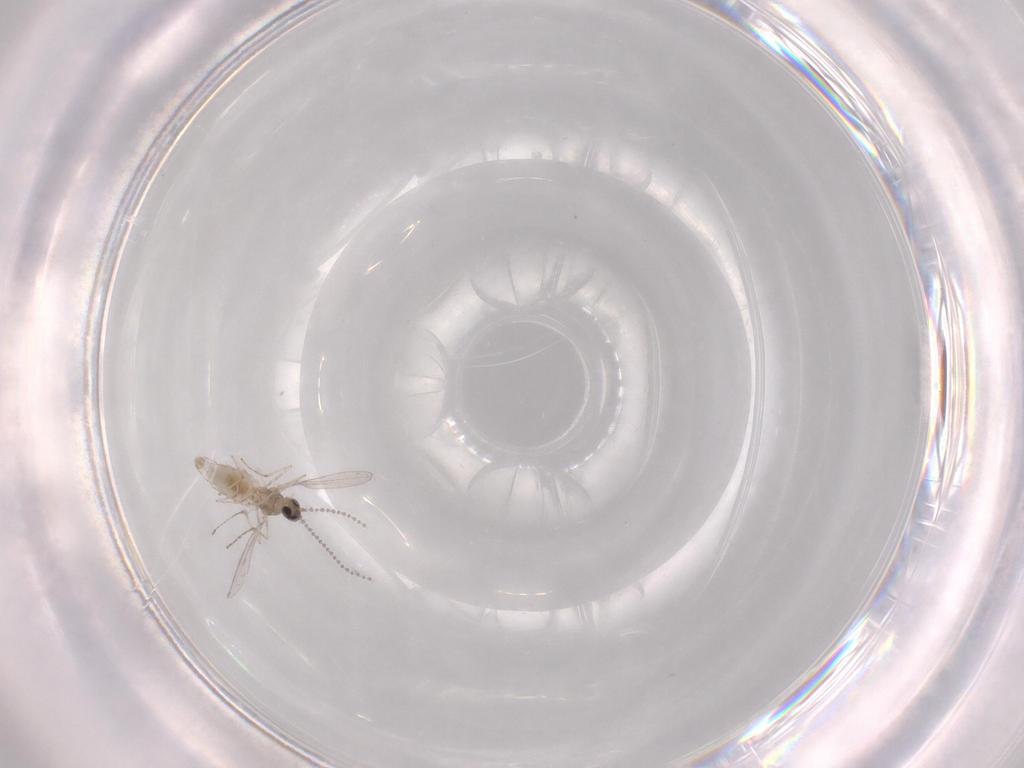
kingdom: Animalia
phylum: Arthropoda
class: Insecta
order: Diptera
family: Cecidomyiidae
